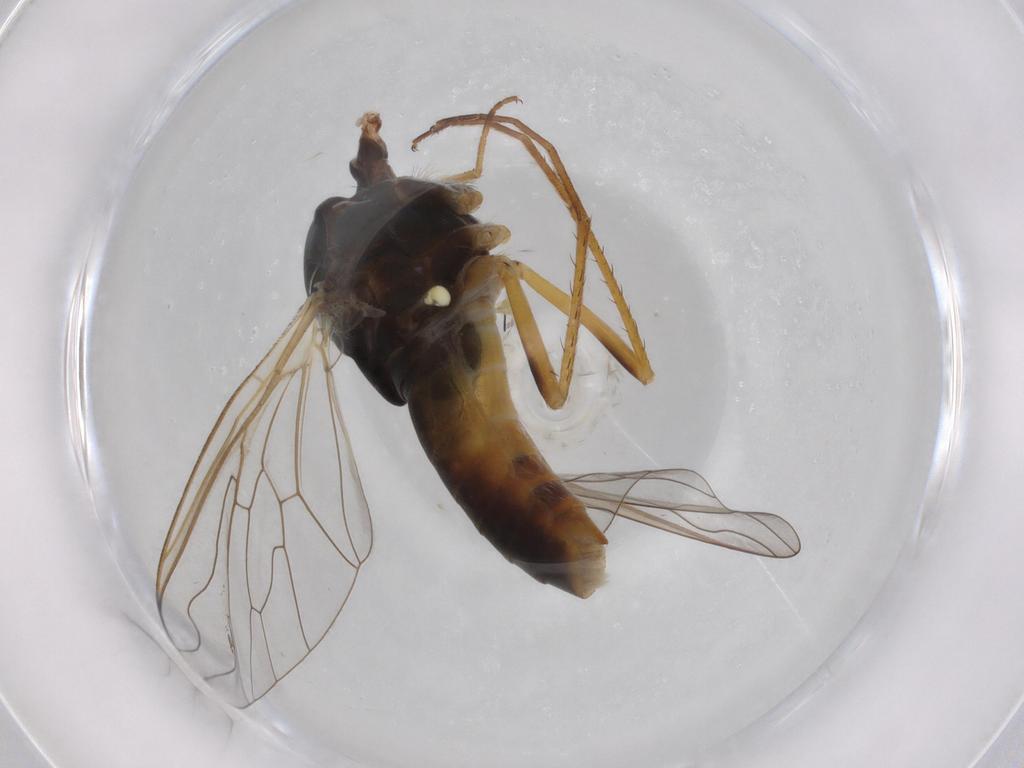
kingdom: Animalia
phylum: Arthropoda
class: Insecta
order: Diptera
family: Bombyliidae
